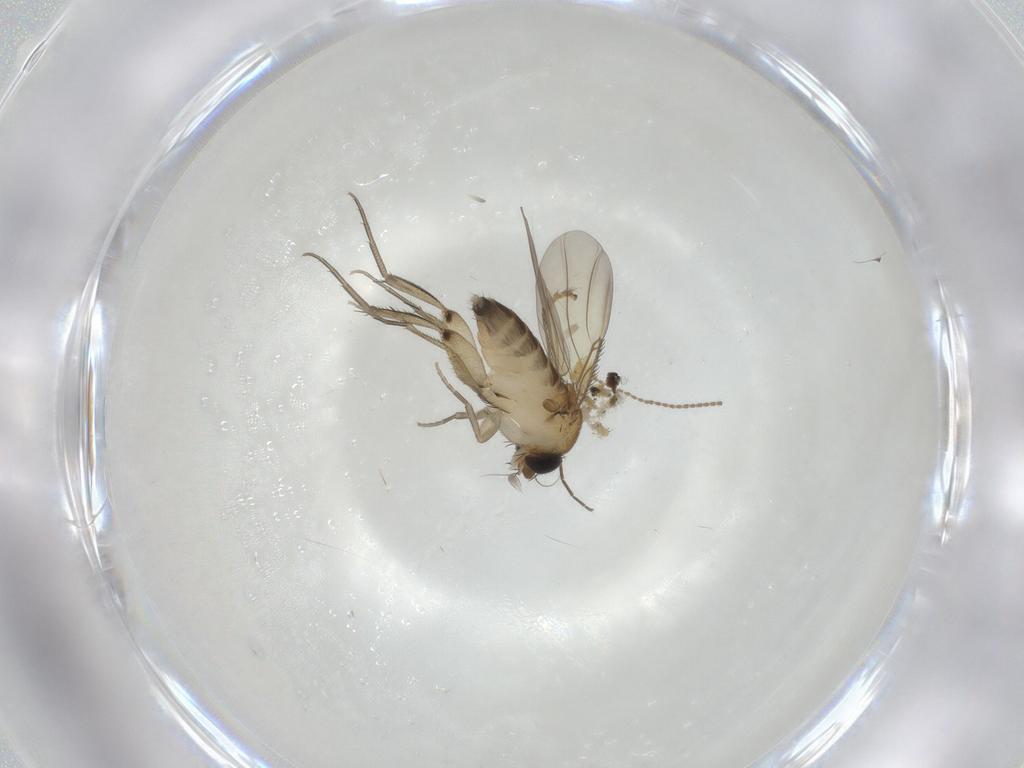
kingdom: Animalia
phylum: Arthropoda
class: Insecta
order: Diptera
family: Phoridae
